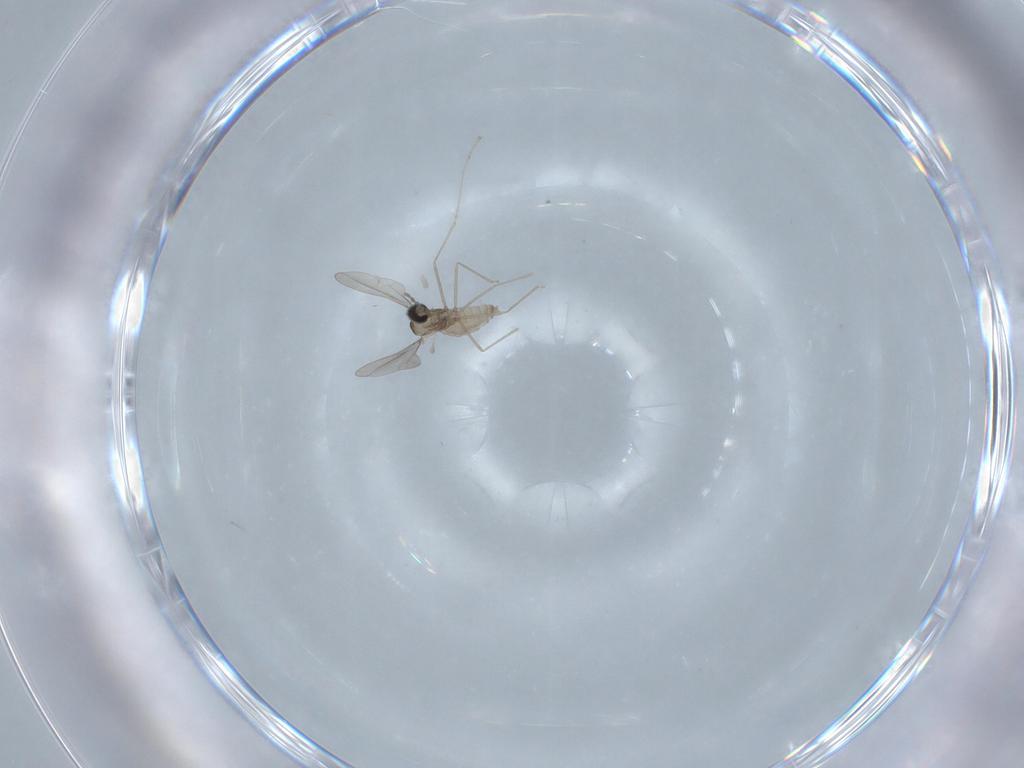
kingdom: Animalia
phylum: Arthropoda
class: Insecta
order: Diptera
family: Cecidomyiidae
